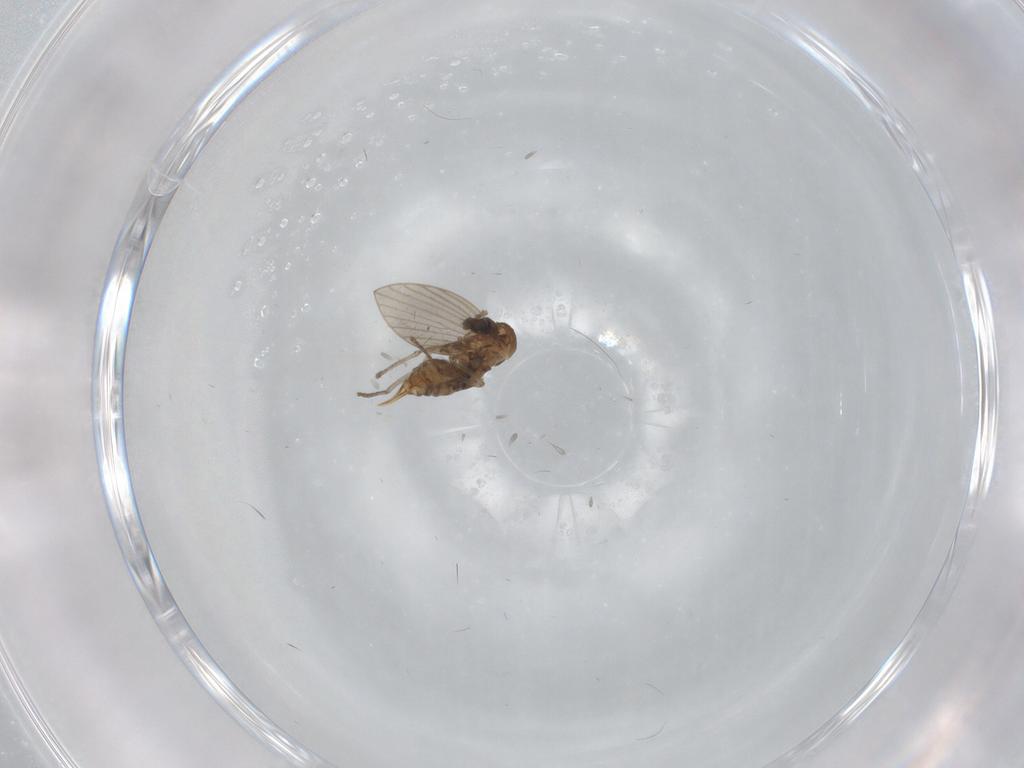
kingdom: Animalia
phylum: Arthropoda
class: Insecta
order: Diptera
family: Psychodidae
